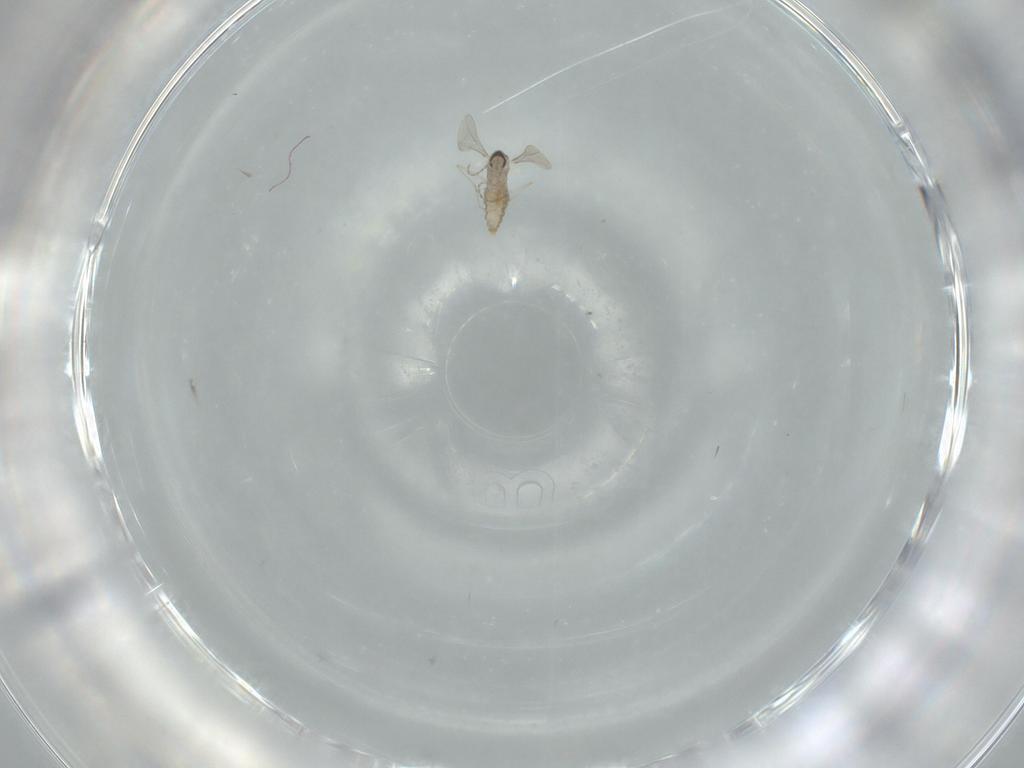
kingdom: Animalia
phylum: Arthropoda
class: Insecta
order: Diptera
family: Cecidomyiidae
